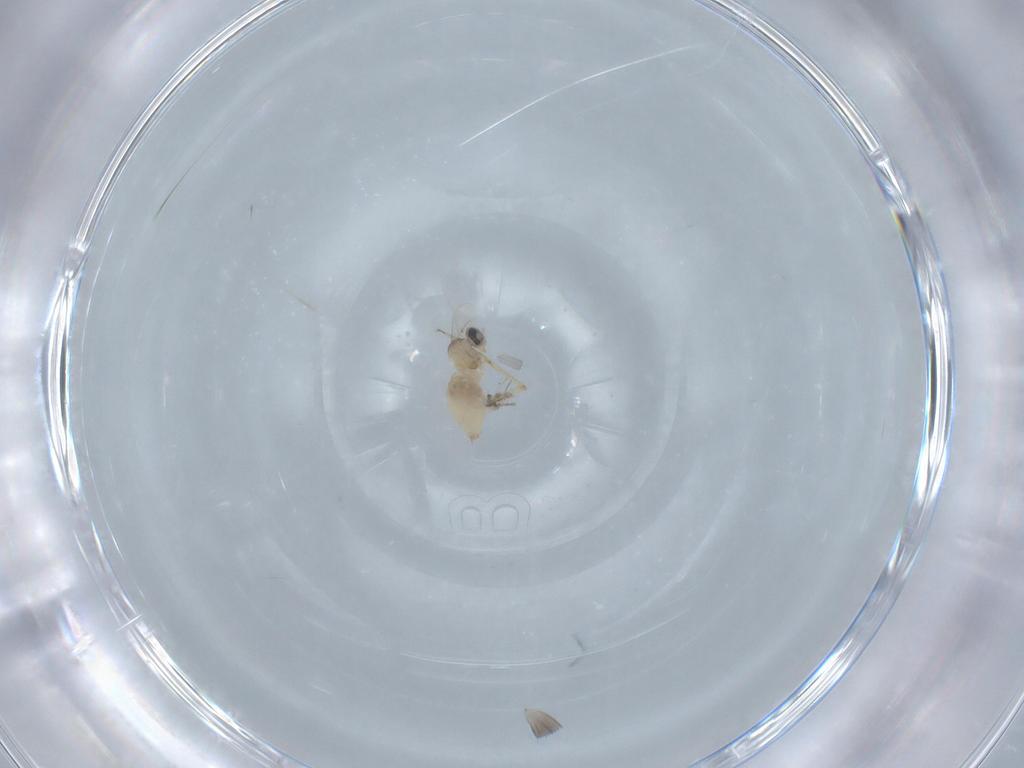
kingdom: Animalia
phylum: Arthropoda
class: Insecta
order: Diptera
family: Ceratopogonidae
